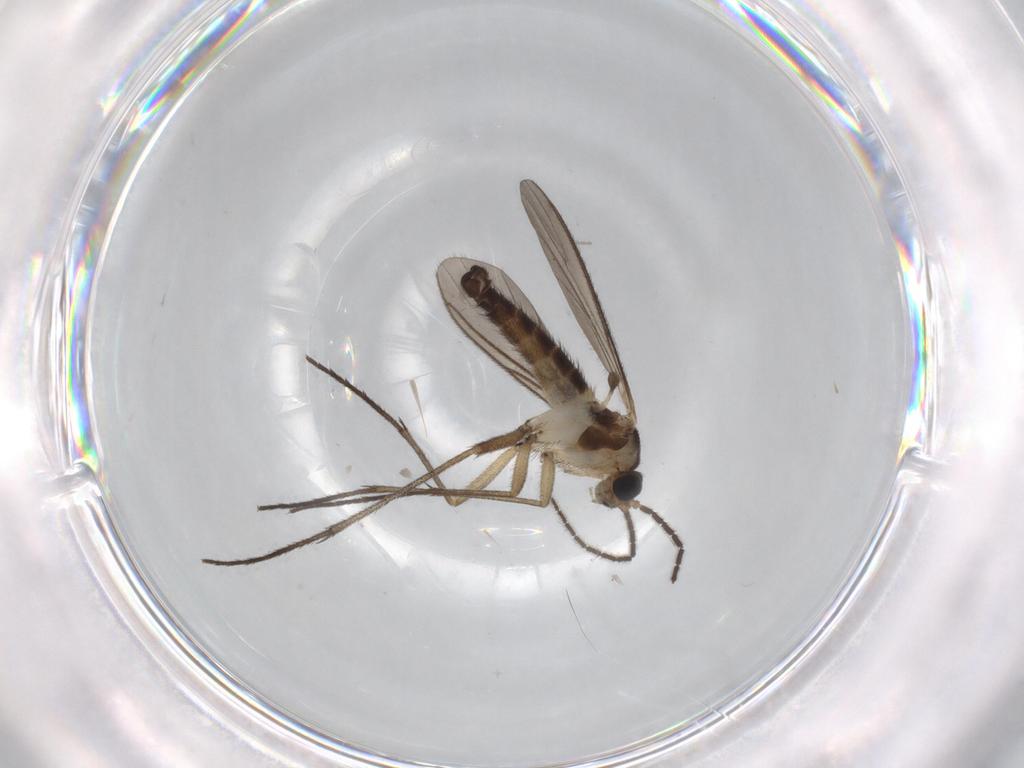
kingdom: Animalia
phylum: Arthropoda
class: Insecta
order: Diptera
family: Sciaridae
